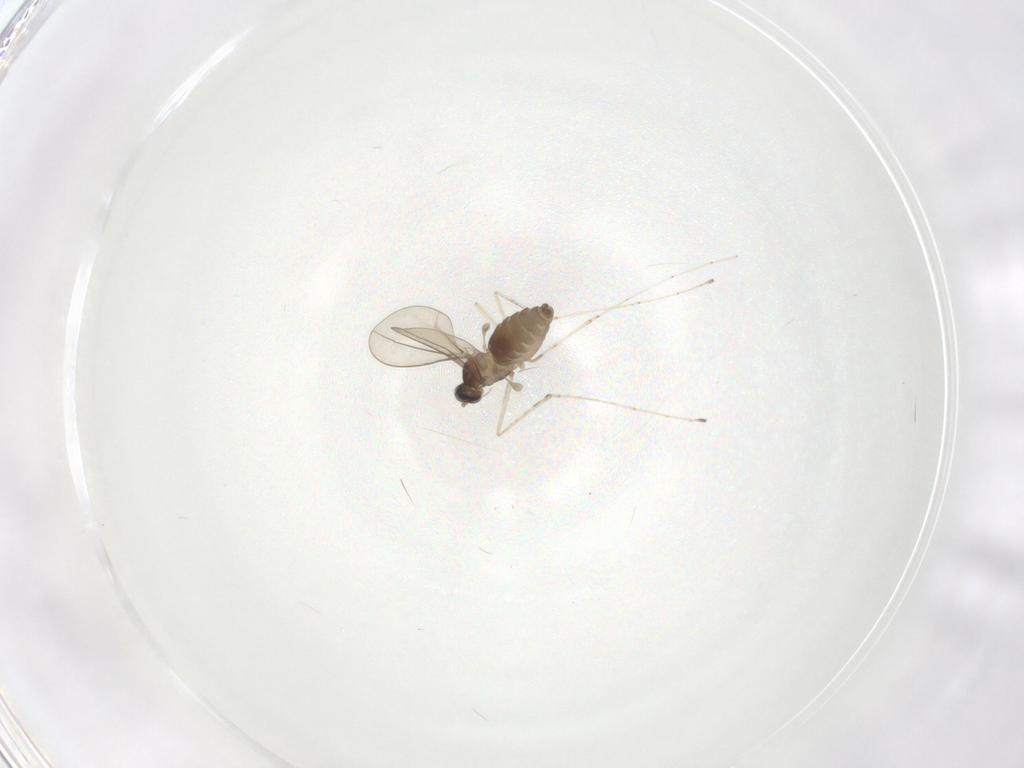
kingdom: Animalia
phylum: Arthropoda
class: Insecta
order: Diptera
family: Cecidomyiidae
